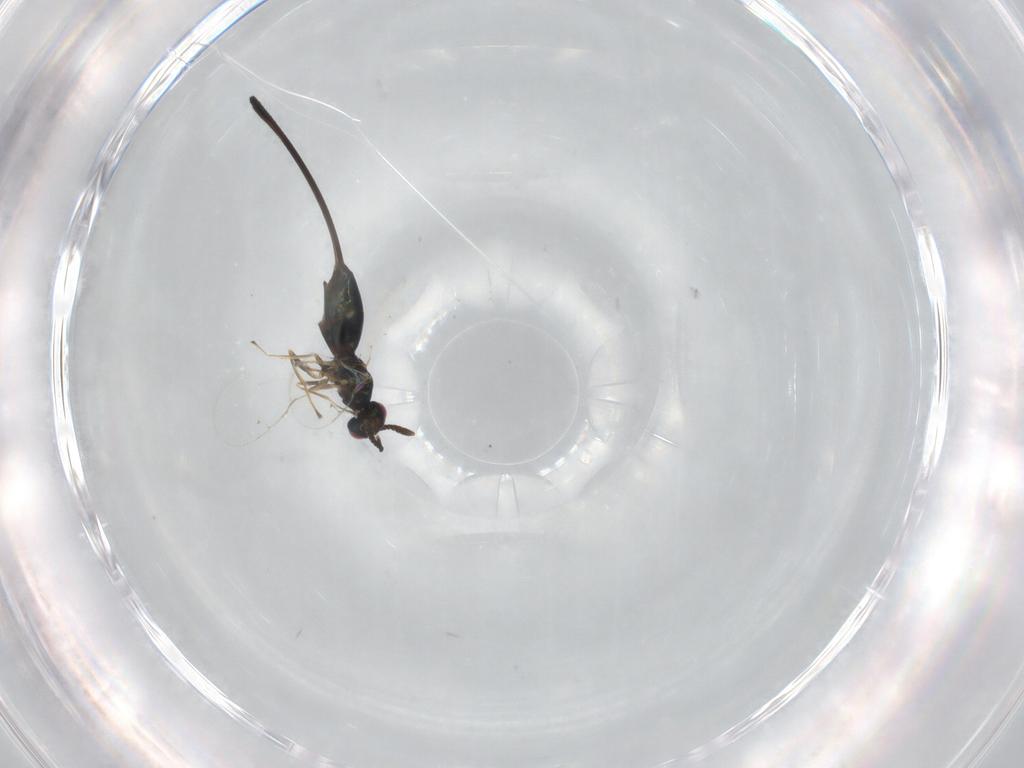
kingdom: Animalia
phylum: Arthropoda
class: Insecta
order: Hymenoptera
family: Pteromalidae
